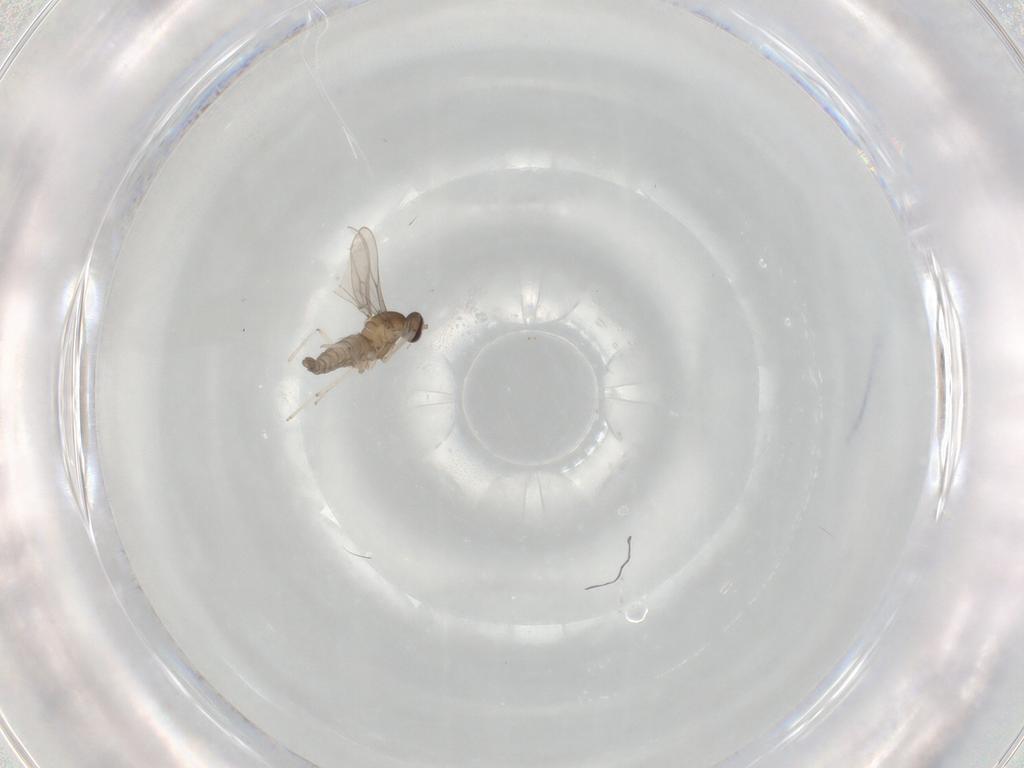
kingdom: Animalia
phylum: Arthropoda
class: Insecta
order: Diptera
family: Cecidomyiidae
